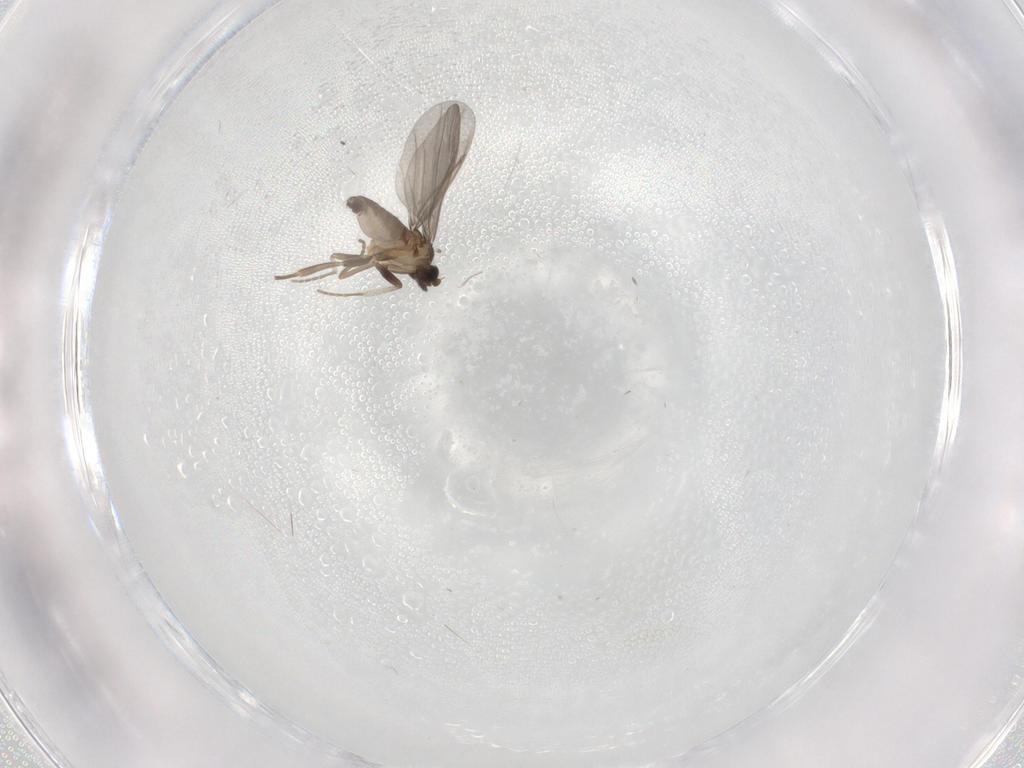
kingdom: Animalia
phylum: Arthropoda
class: Insecta
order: Diptera
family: Phoridae
